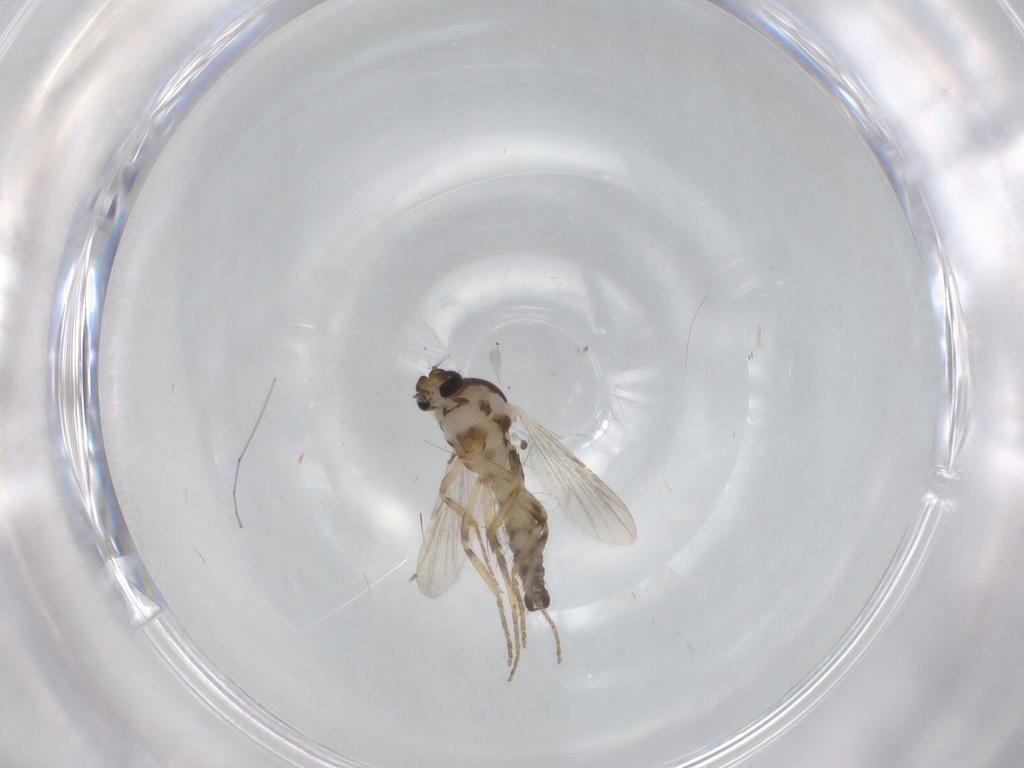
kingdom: Animalia
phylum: Arthropoda
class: Insecta
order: Diptera
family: Ceratopogonidae
